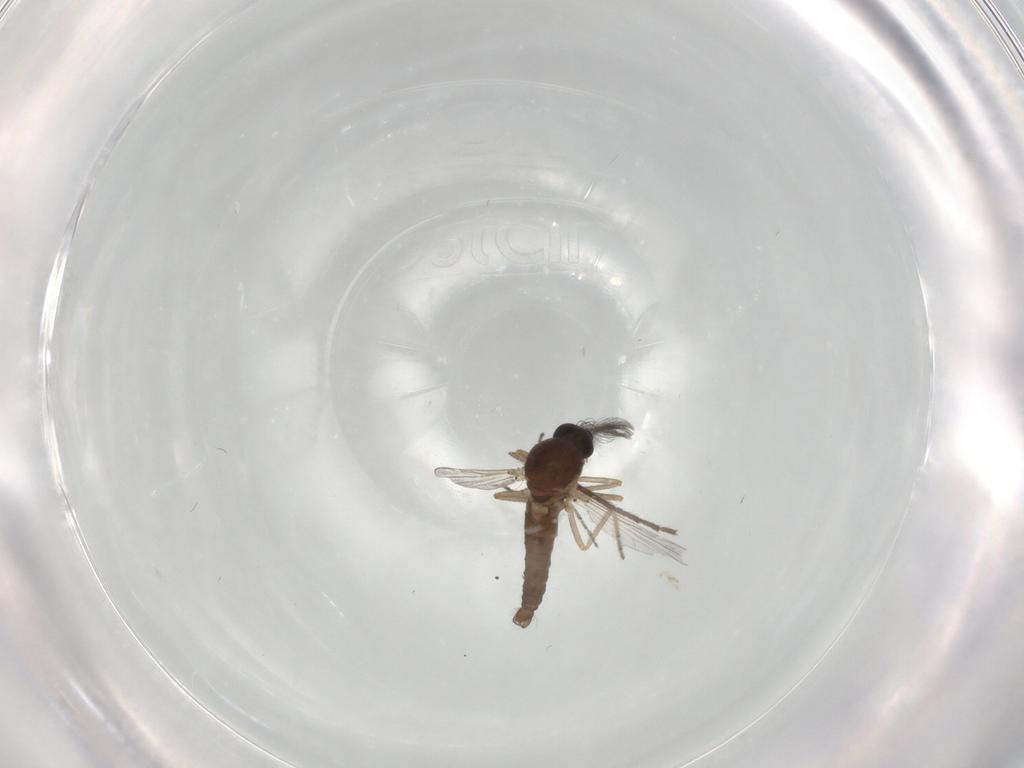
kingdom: Animalia
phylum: Arthropoda
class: Insecta
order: Diptera
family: Ceratopogonidae
